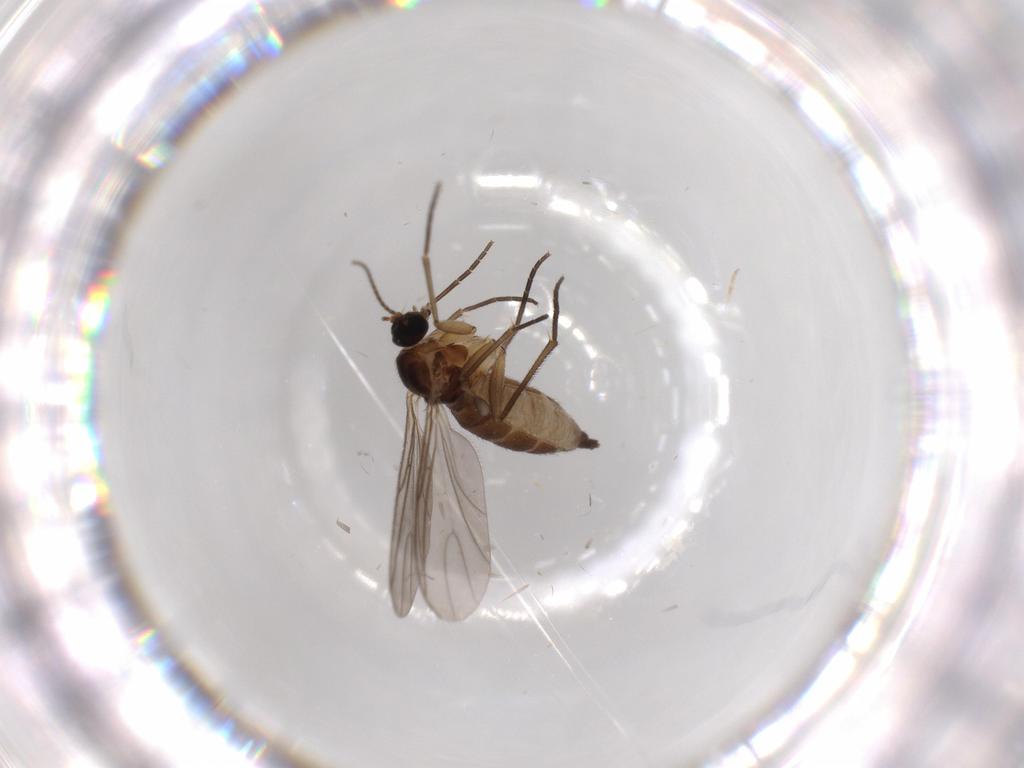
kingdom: Animalia
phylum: Arthropoda
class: Insecta
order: Diptera
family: Sciaridae
